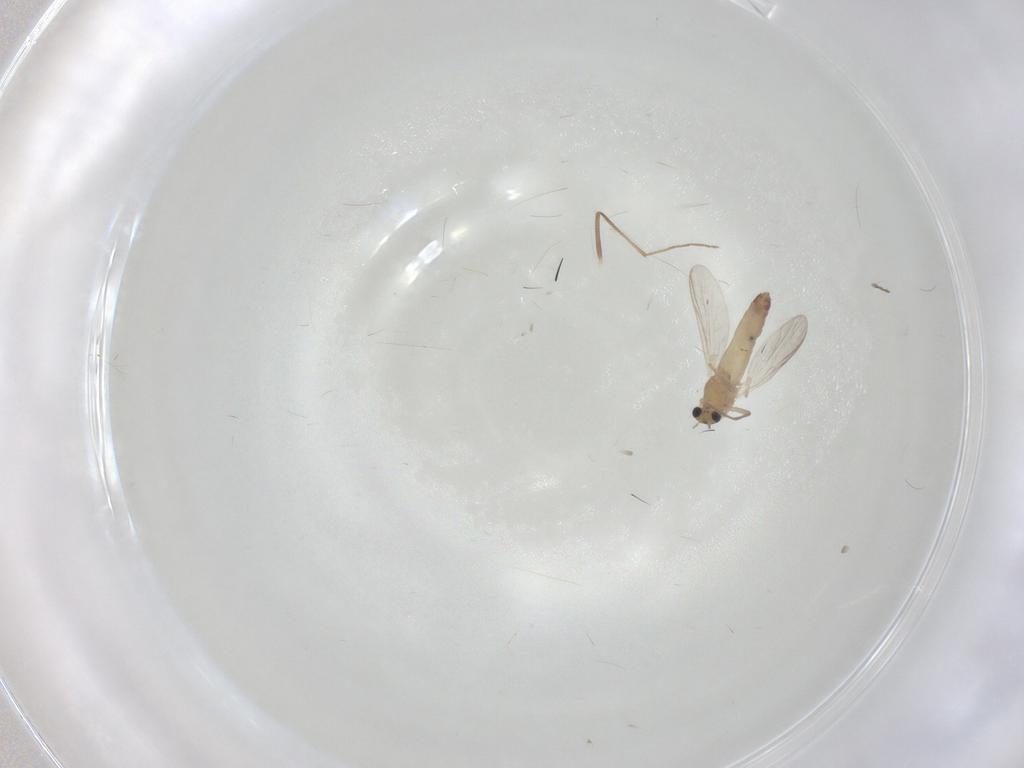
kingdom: Animalia
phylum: Arthropoda
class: Insecta
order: Diptera
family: Chironomidae
